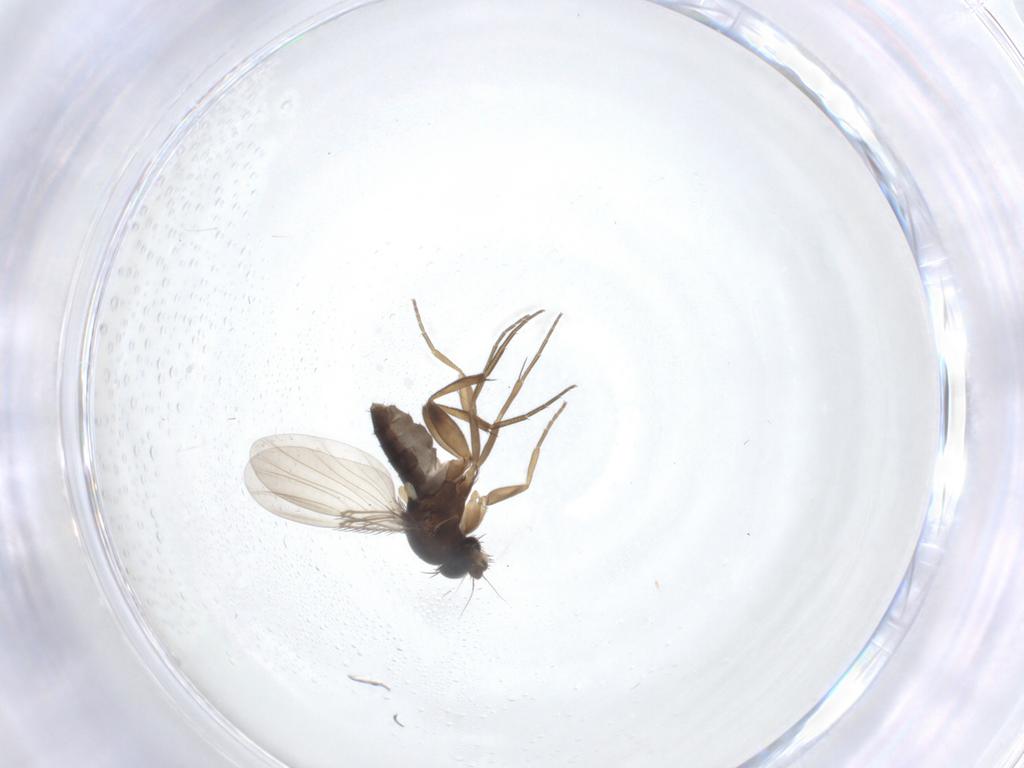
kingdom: Animalia
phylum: Arthropoda
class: Insecta
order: Diptera
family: Phoridae
